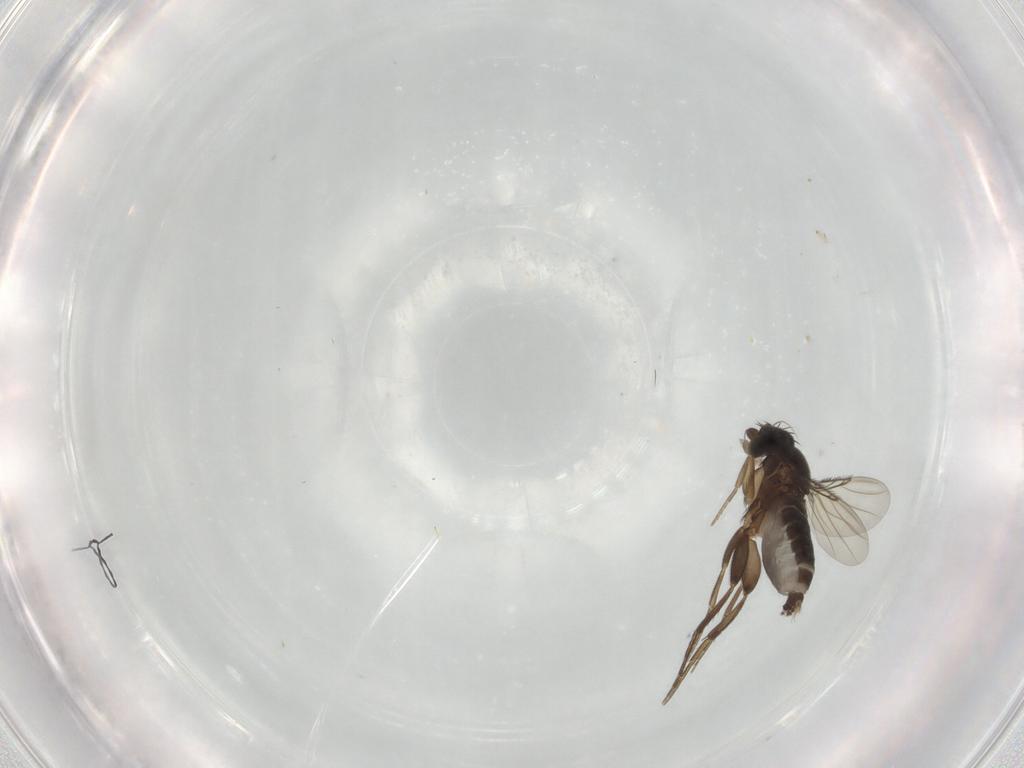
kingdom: Animalia
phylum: Arthropoda
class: Insecta
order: Diptera
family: Phoridae
